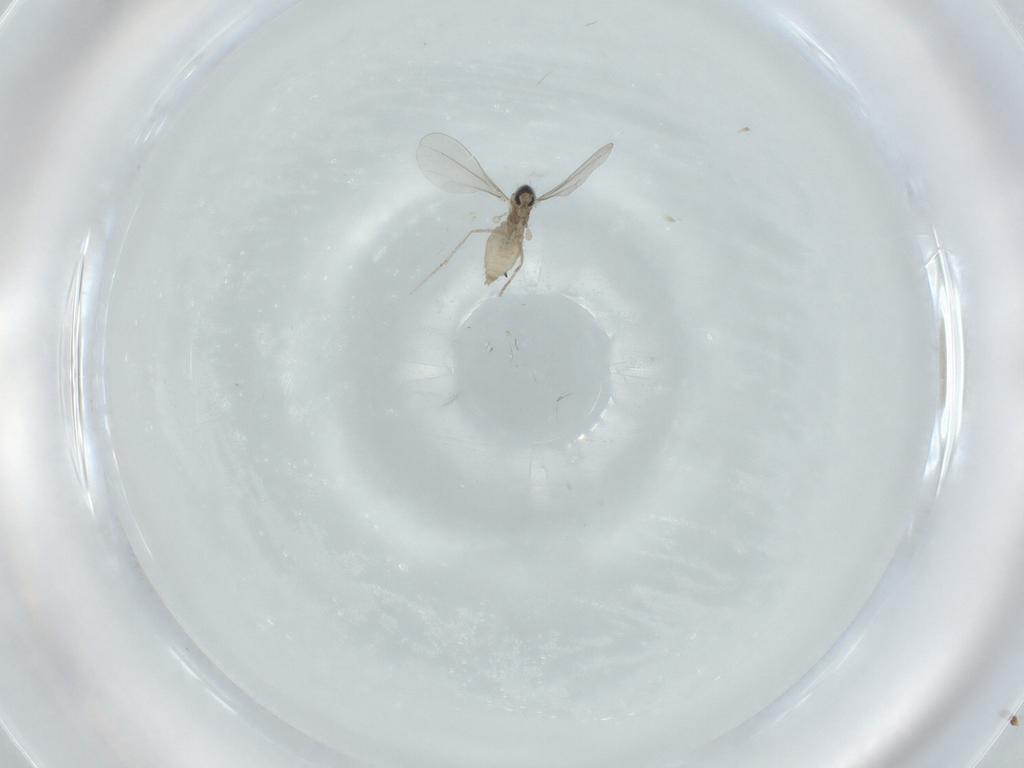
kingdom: Animalia
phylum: Arthropoda
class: Insecta
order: Diptera
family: Cecidomyiidae
